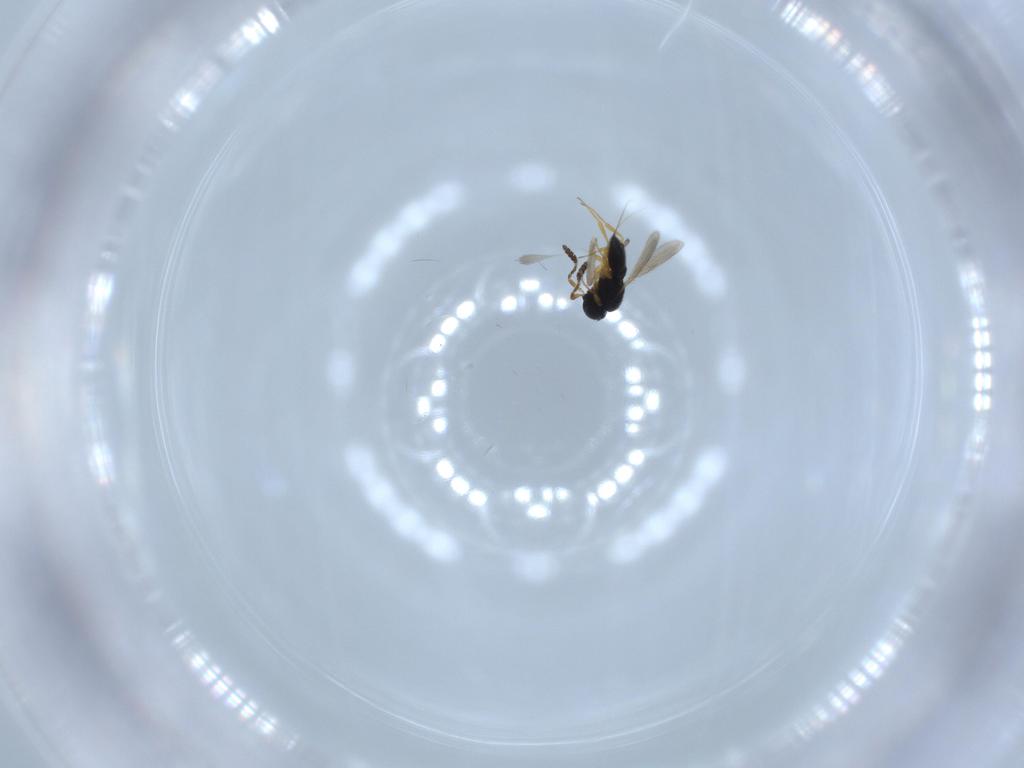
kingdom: Animalia
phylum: Arthropoda
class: Insecta
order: Hymenoptera
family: Scelionidae
